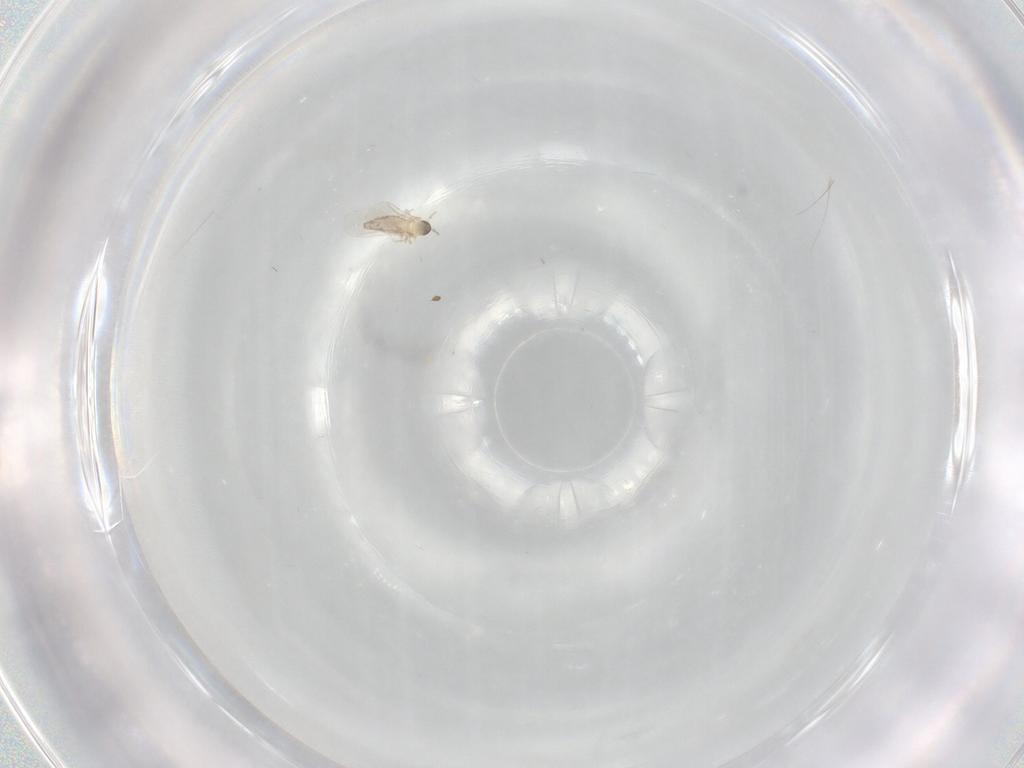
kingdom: Animalia
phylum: Arthropoda
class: Insecta
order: Diptera
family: Cecidomyiidae
